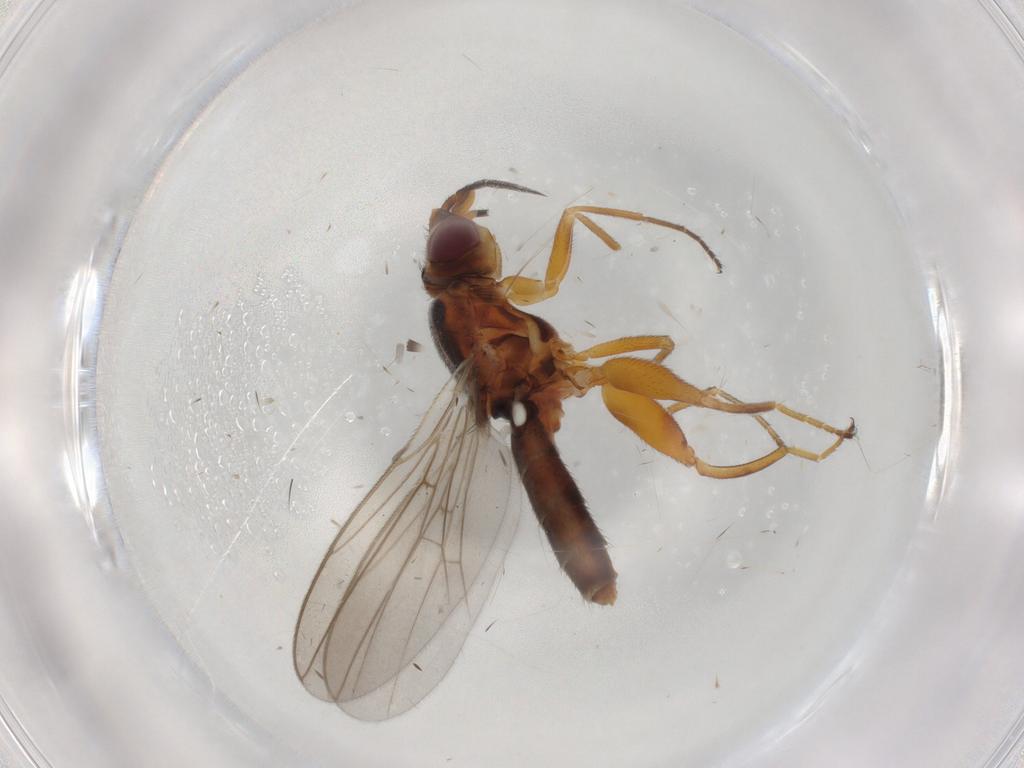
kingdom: Animalia
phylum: Arthropoda
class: Insecta
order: Diptera
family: Chloropidae
